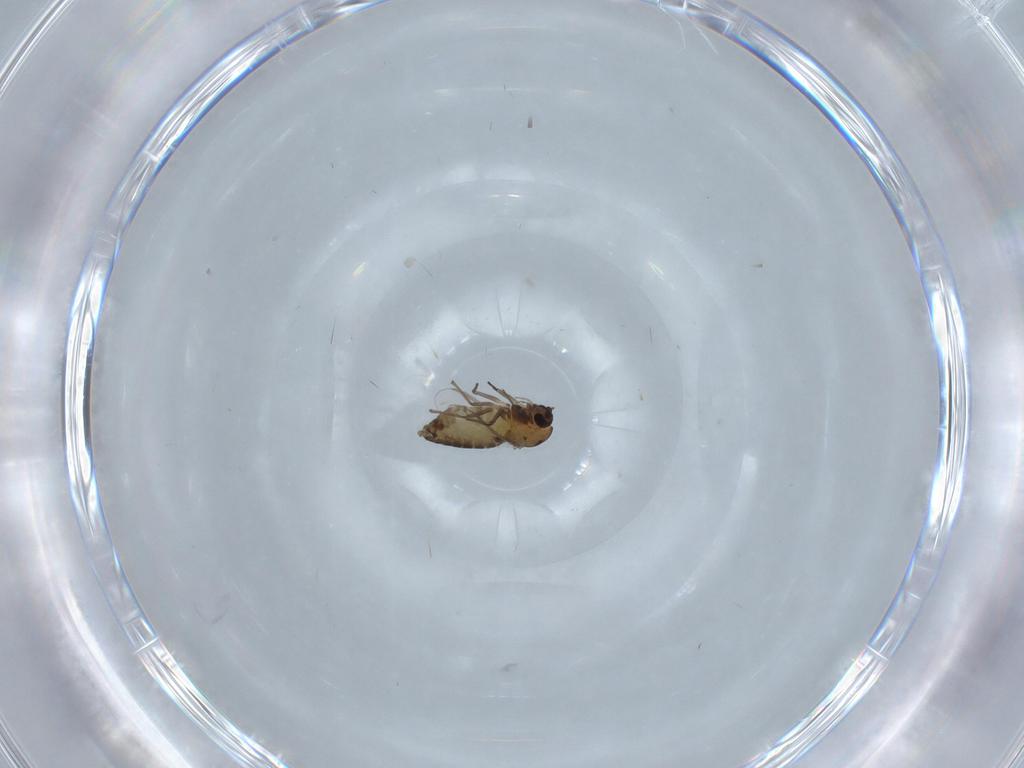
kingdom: Animalia
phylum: Arthropoda
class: Insecta
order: Diptera
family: Chironomidae
